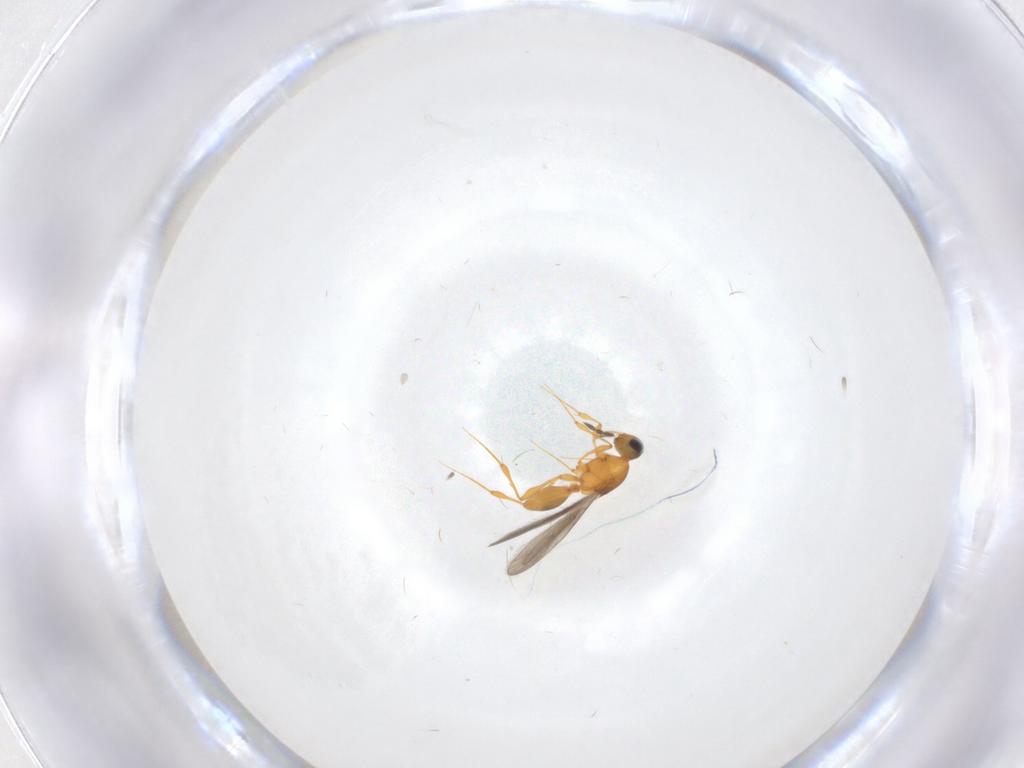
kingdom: Animalia
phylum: Arthropoda
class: Insecta
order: Hymenoptera
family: Platygastridae
